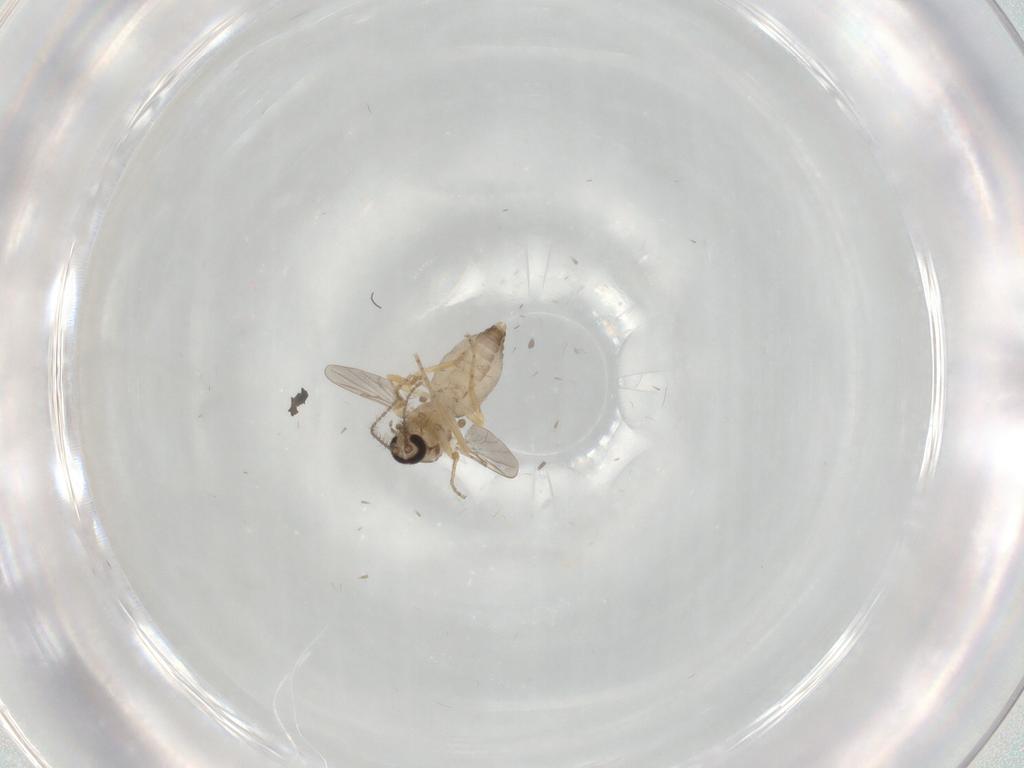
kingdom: Animalia
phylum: Arthropoda
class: Insecta
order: Diptera
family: Ceratopogonidae
